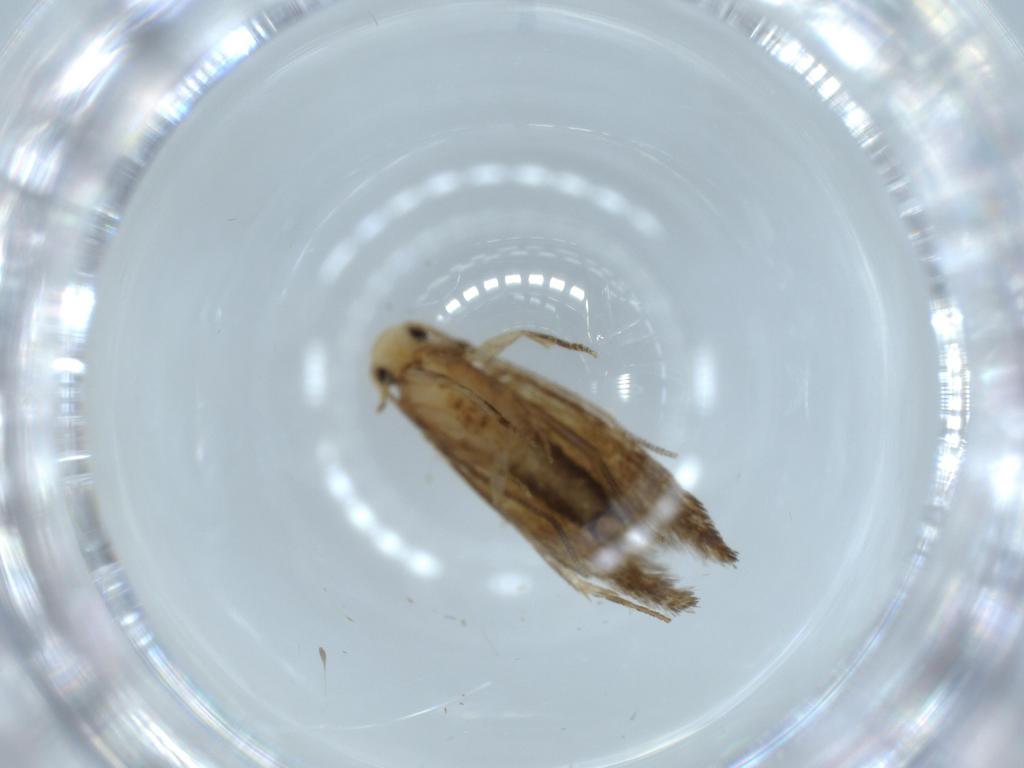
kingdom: Animalia
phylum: Arthropoda
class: Insecta
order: Lepidoptera
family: Tineidae
